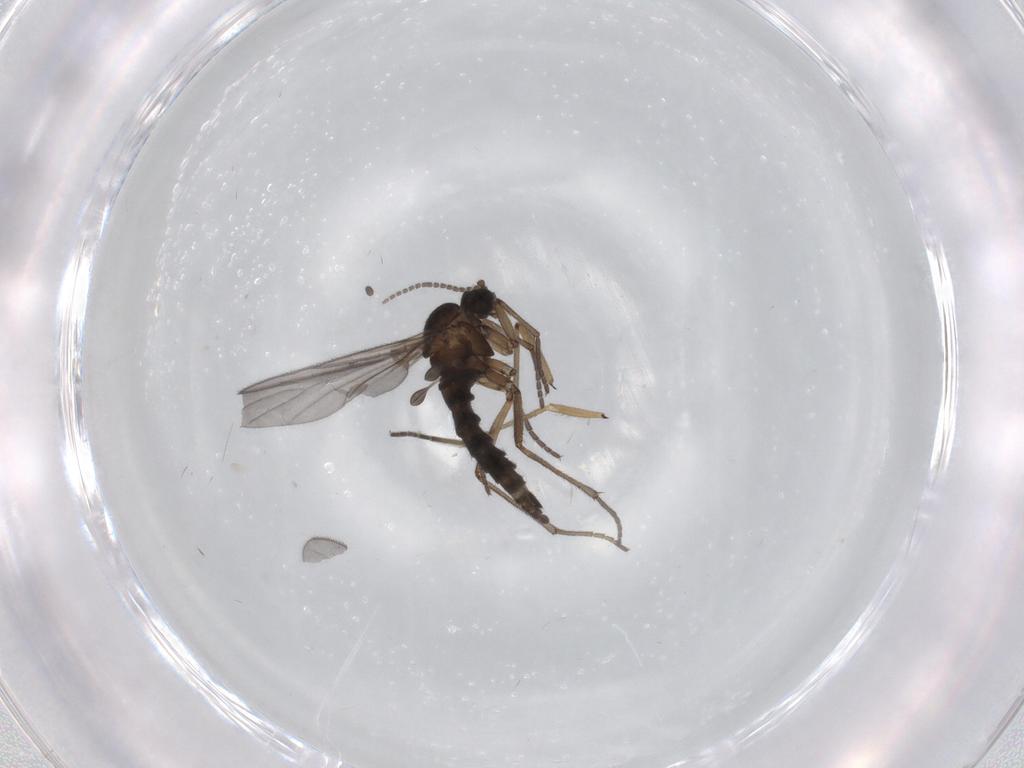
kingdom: Animalia
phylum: Arthropoda
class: Insecta
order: Diptera
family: Sciaridae
